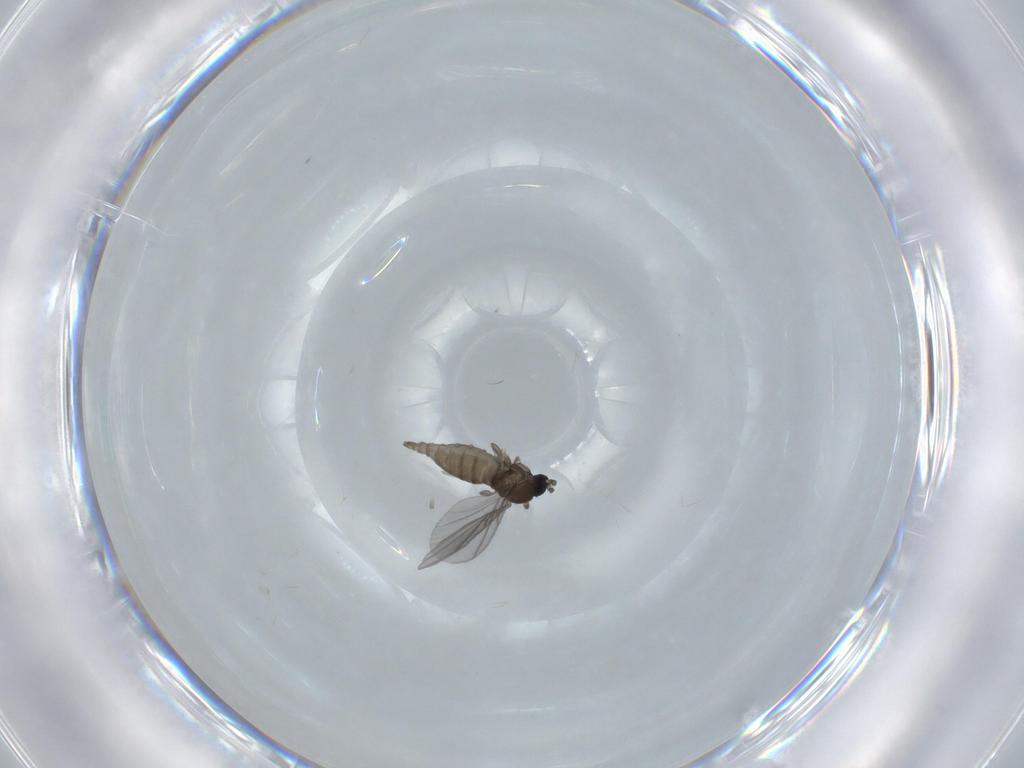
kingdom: Animalia
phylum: Arthropoda
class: Insecta
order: Diptera
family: Sciaridae
